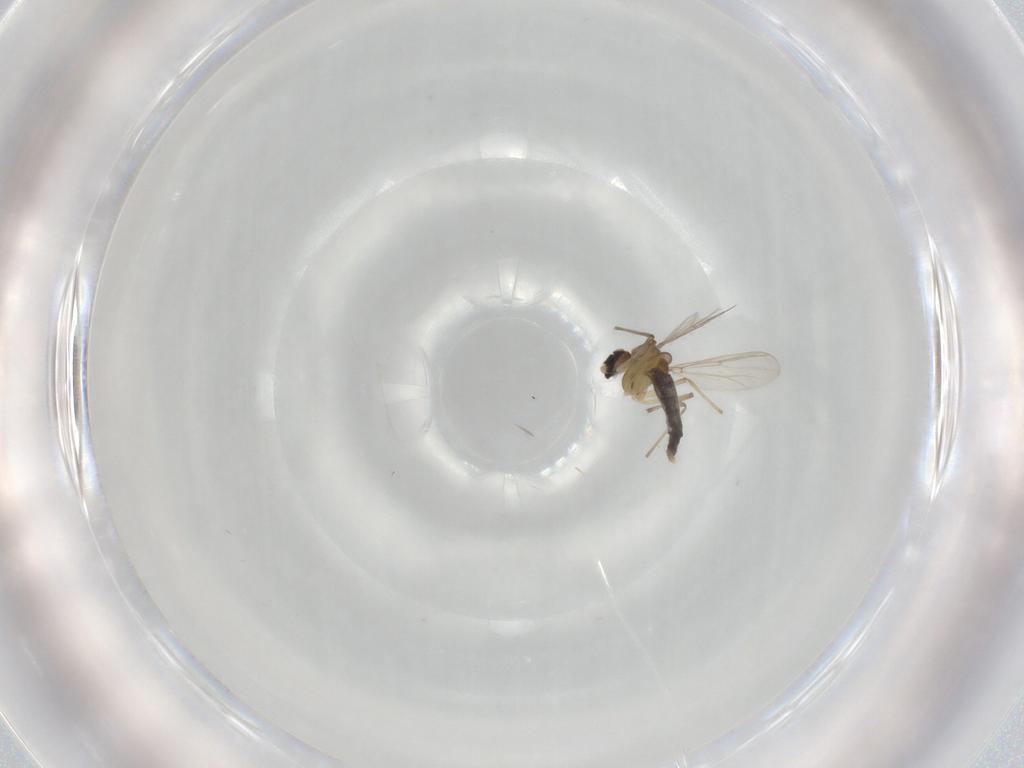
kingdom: Animalia
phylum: Arthropoda
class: Insecta
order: Diptera
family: Chironomidae
